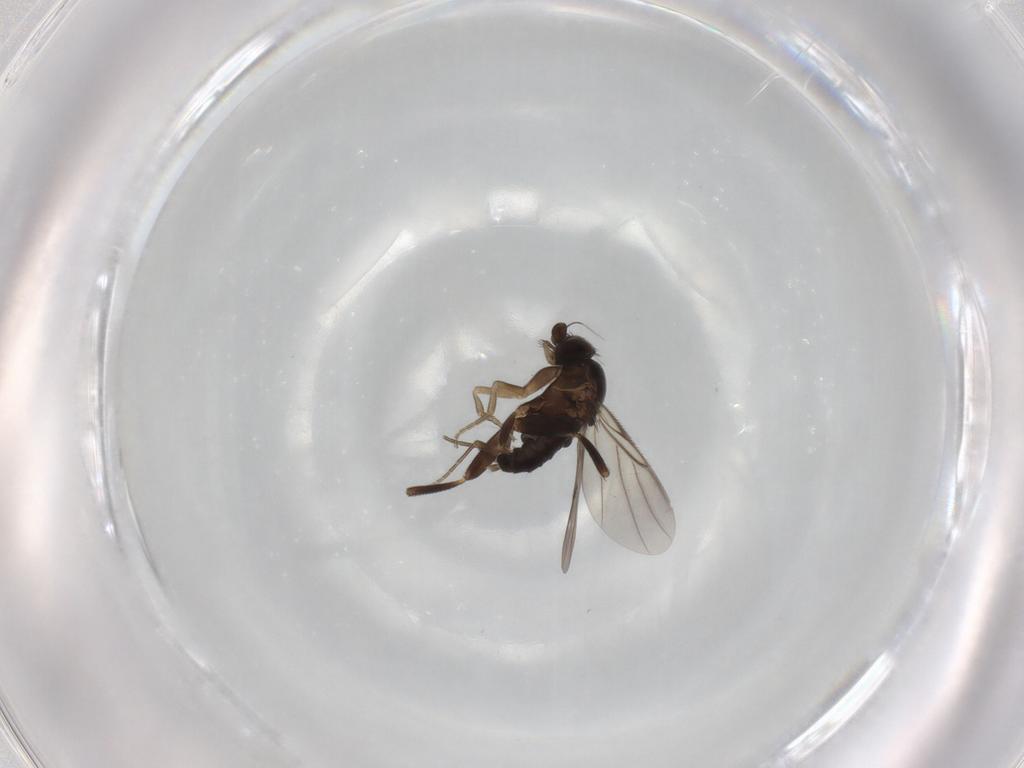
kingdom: Animalia
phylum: Arthropoda
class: Insecta
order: Diptera
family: Phoridae
